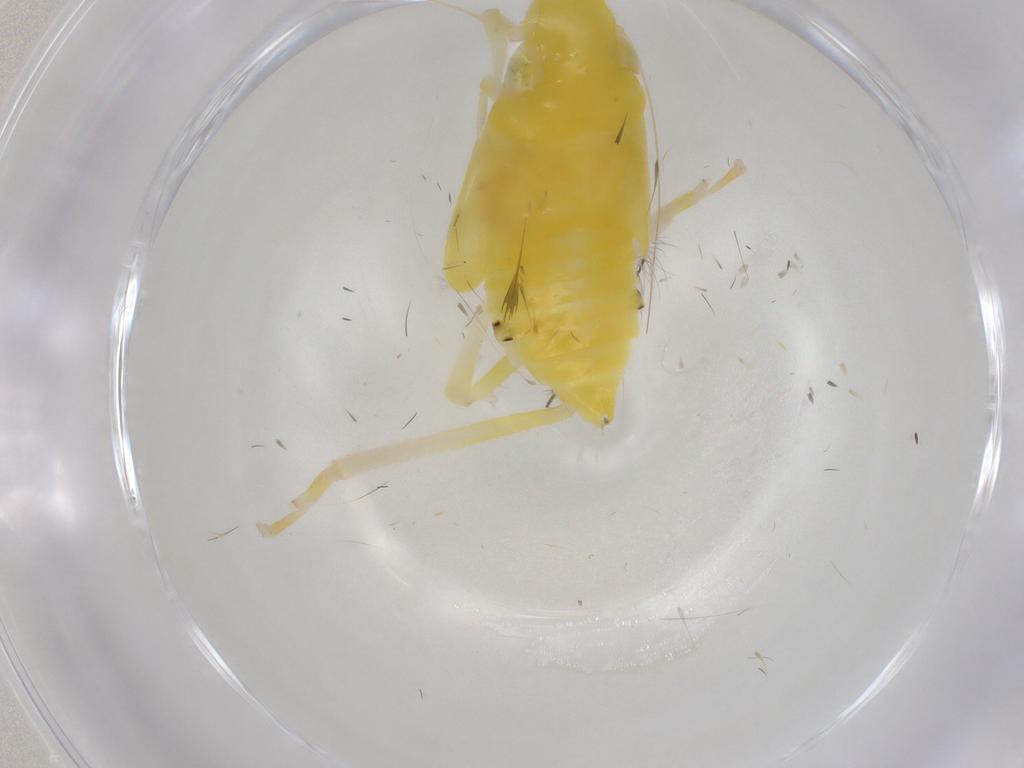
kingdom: Animalia
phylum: Arthropoda
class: Insecta
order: Hemiptera
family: Cicadellidae
